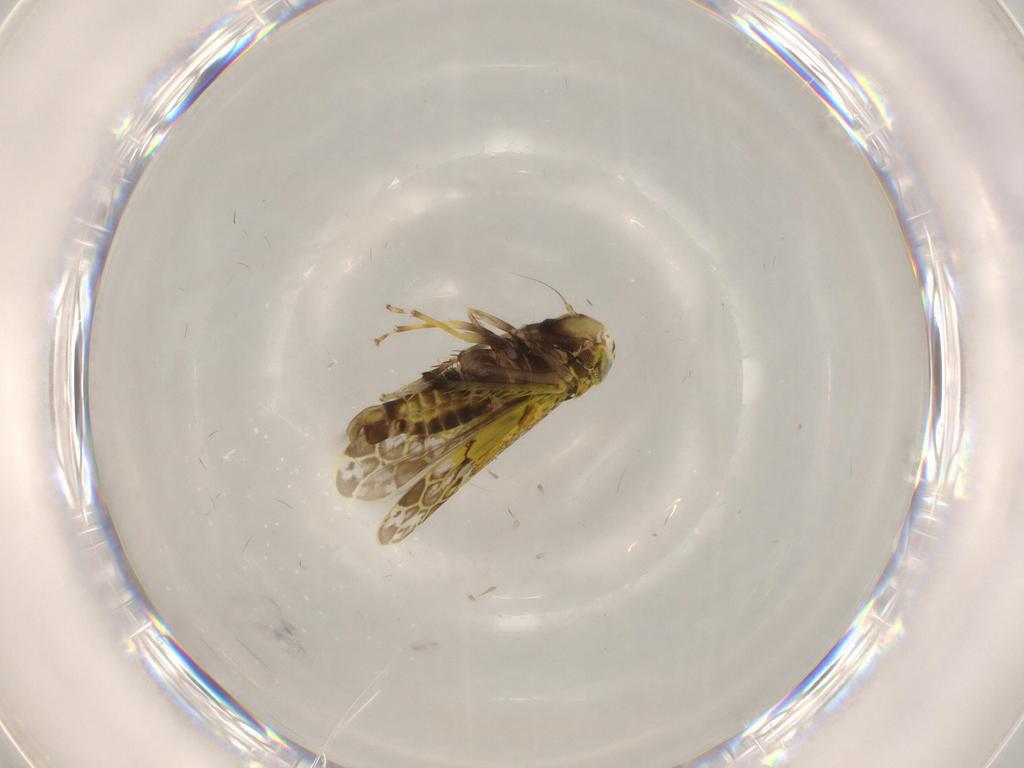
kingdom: Animalia
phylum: Arthropoda
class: Insecta
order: Hemiptera
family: Cicadellidae
